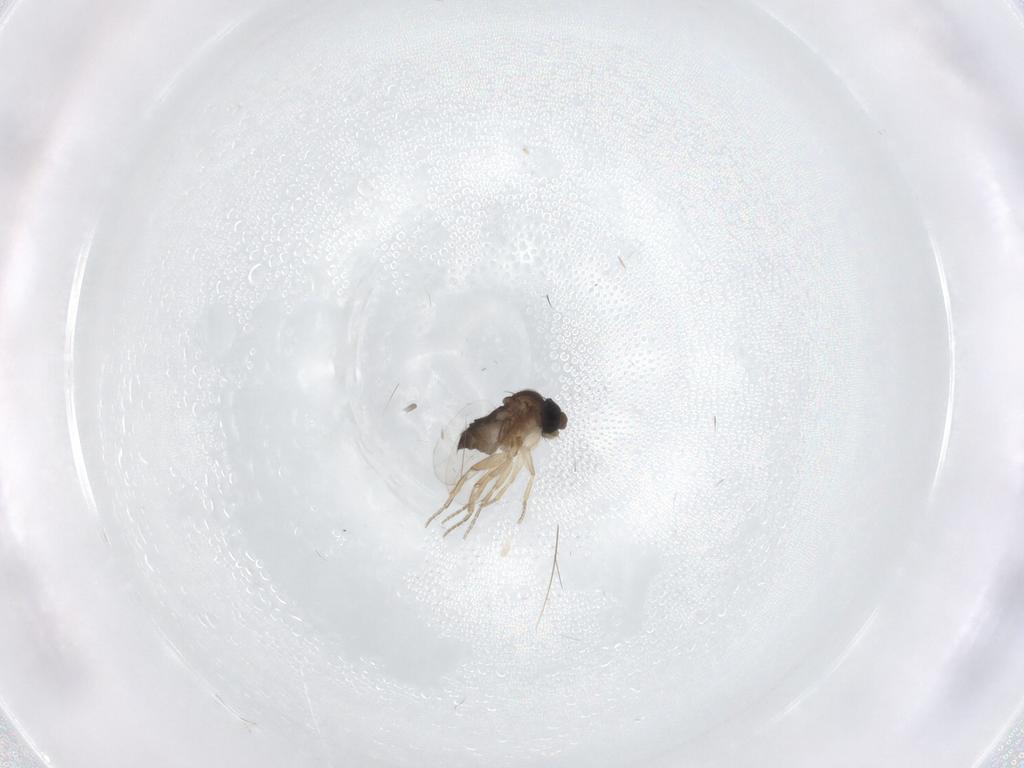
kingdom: Animalia
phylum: Arthropoda
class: Insecta
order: Diptera
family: Phoridae
